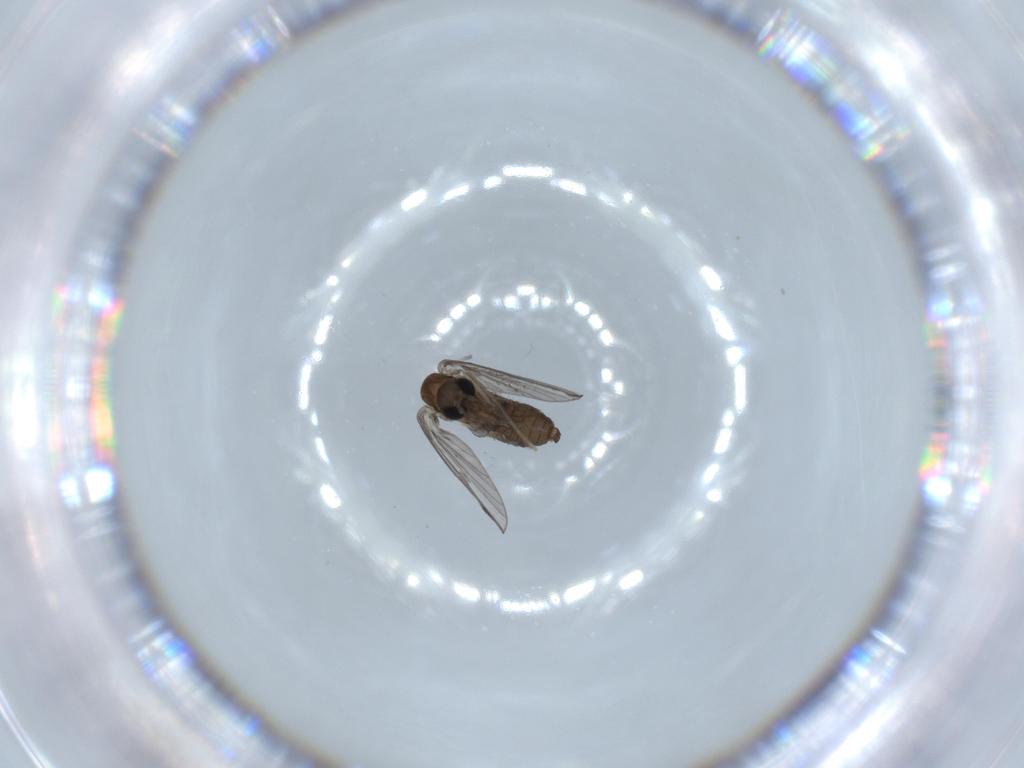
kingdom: Animalia
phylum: Arthropoda
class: Insecta
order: Diptera
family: Psychodidae
